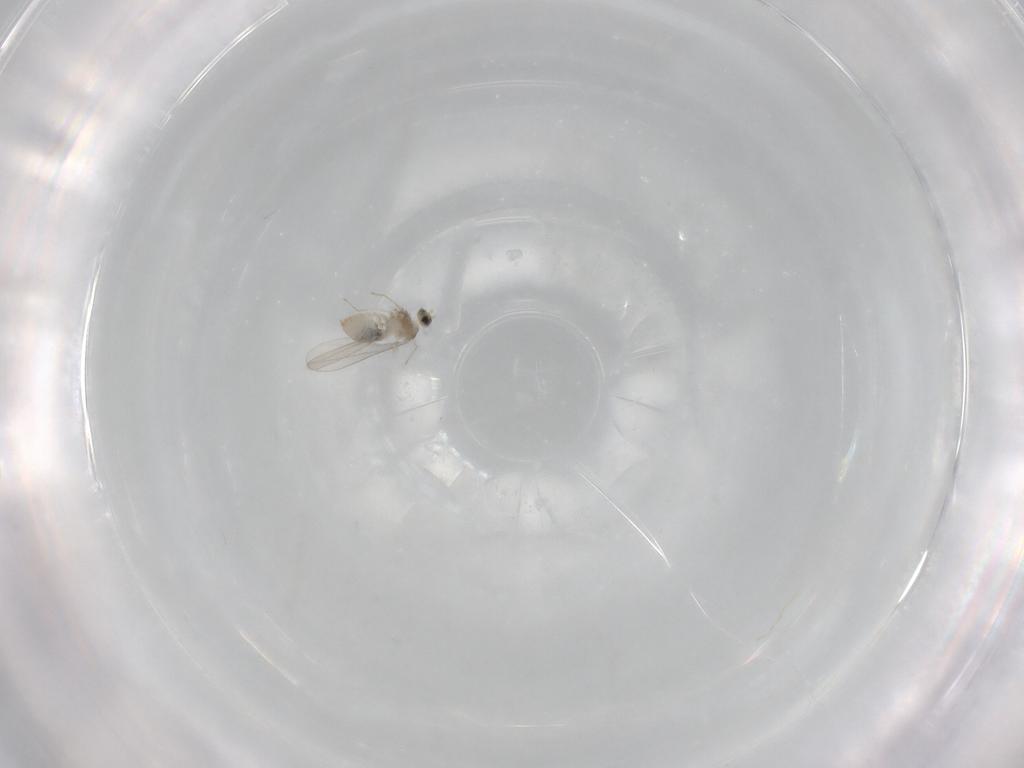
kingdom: Animalia
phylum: Arthropoda
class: Insecta
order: Diptera
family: Cecidomyiidae
